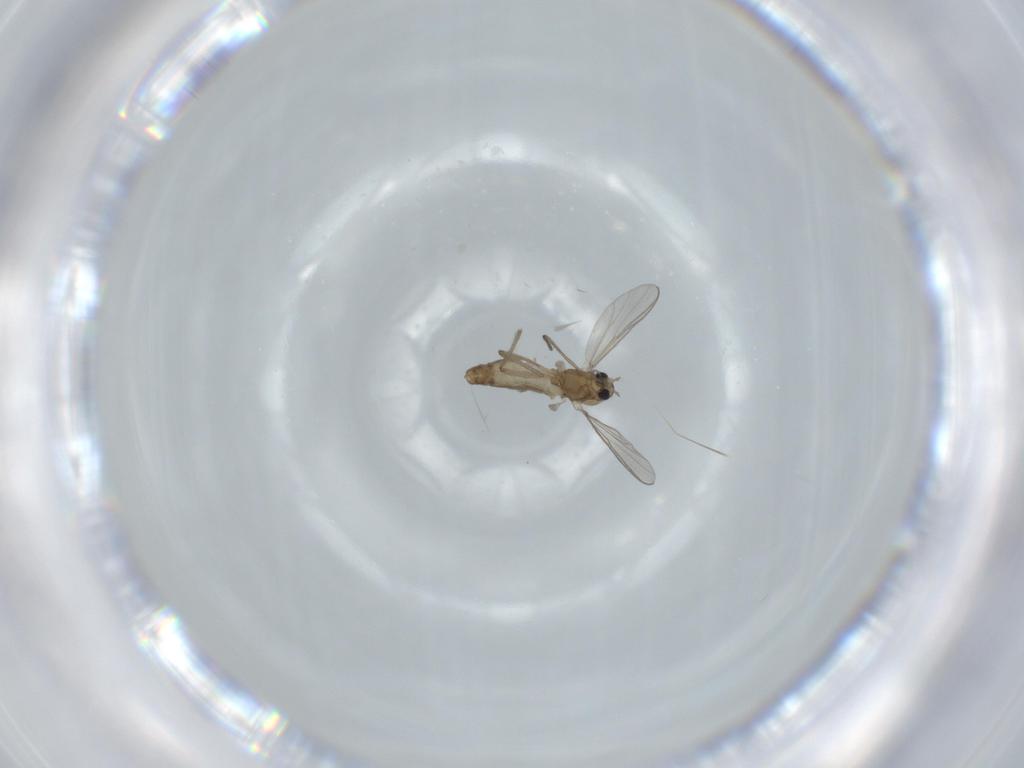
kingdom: Animalia
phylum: Arthropoda
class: Insecta
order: Diptera
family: Chironomidae
